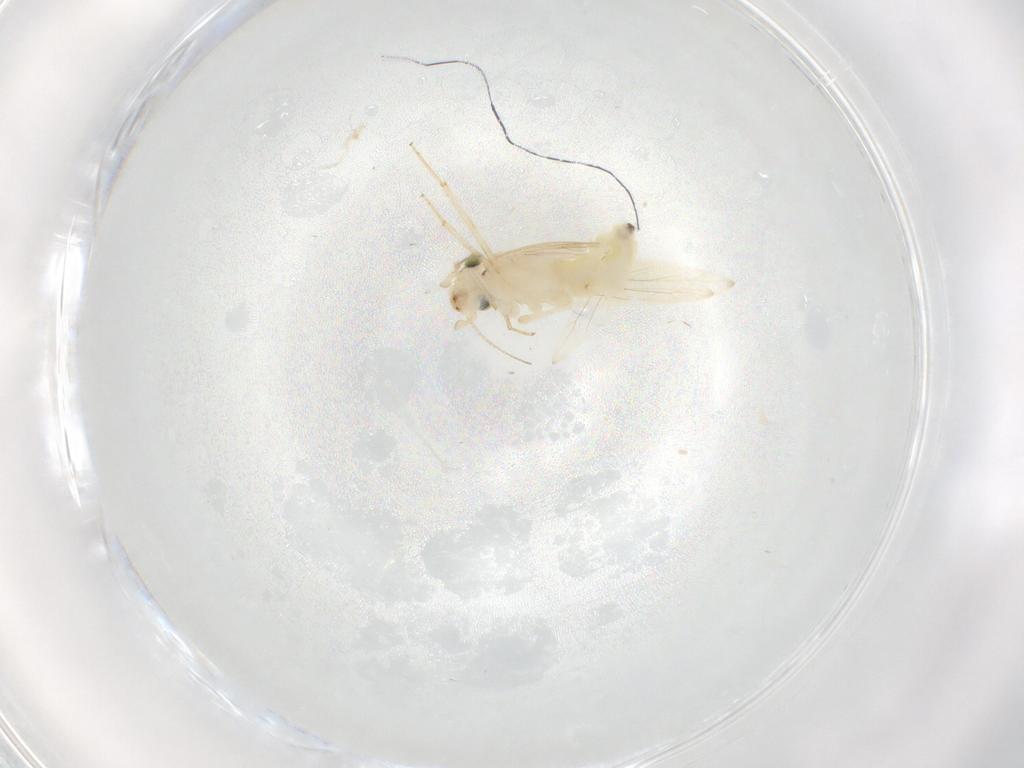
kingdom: Animalia
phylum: Arthropoda
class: Insecta
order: Psocodea
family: Lepidopsocidae
